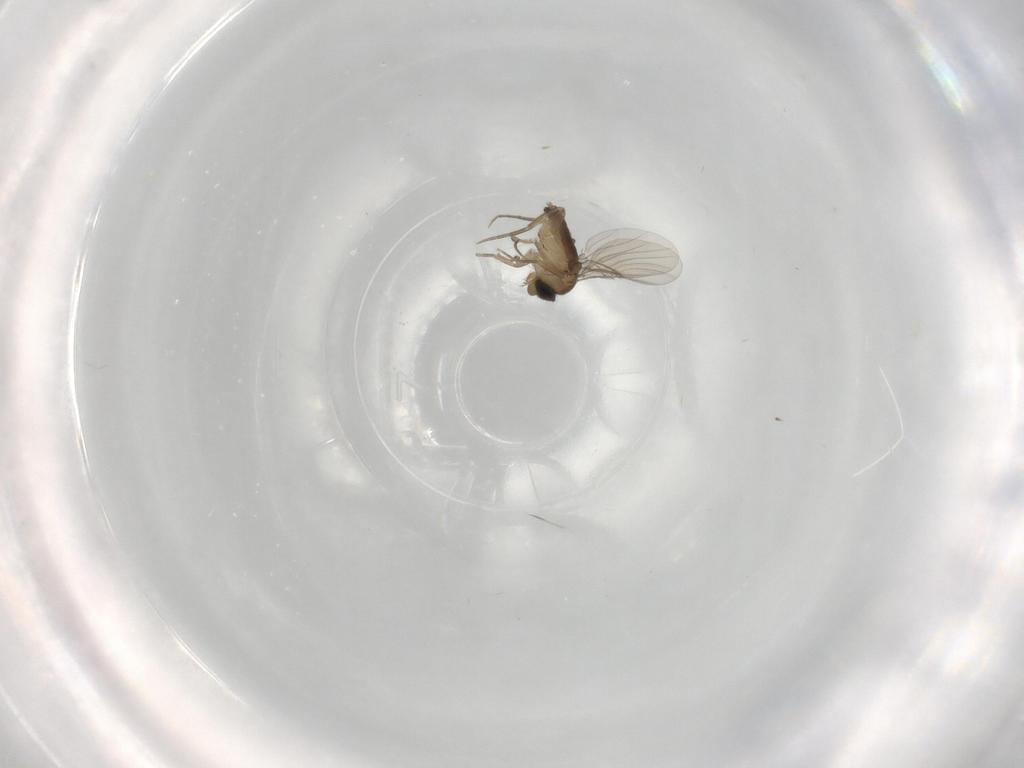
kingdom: Animalia
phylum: Arthropoda
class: Insecta
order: Diptera
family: Phoridae
